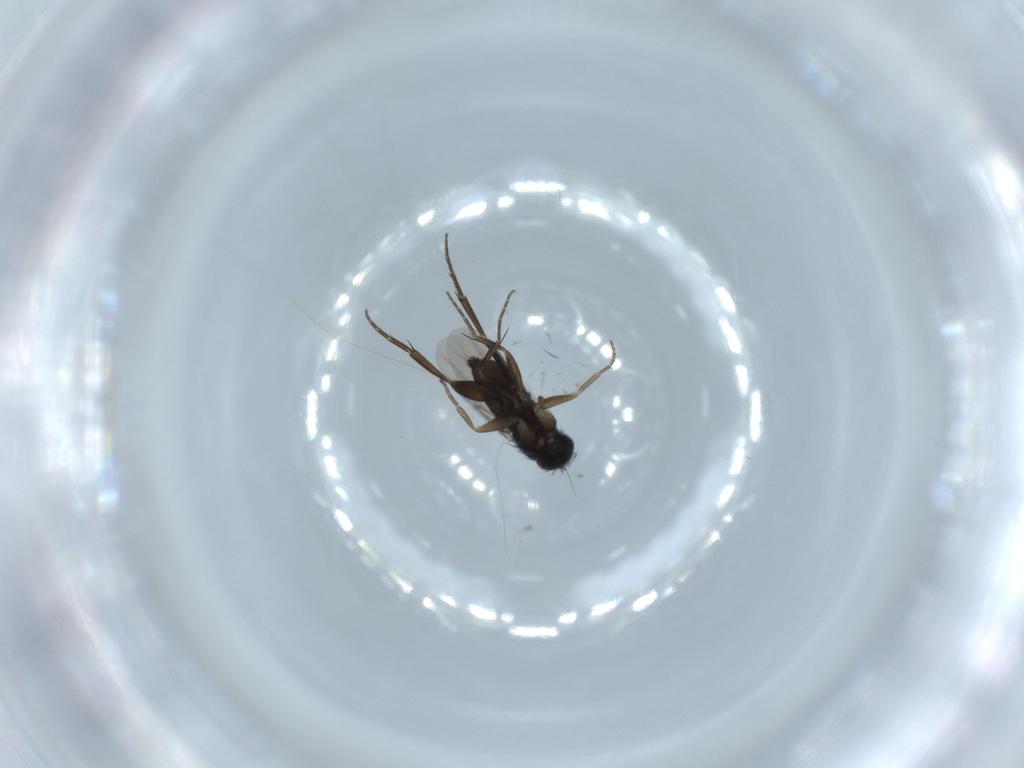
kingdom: Animalia
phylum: Arthropoda
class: Insecta
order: Diptera
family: Phoridae
